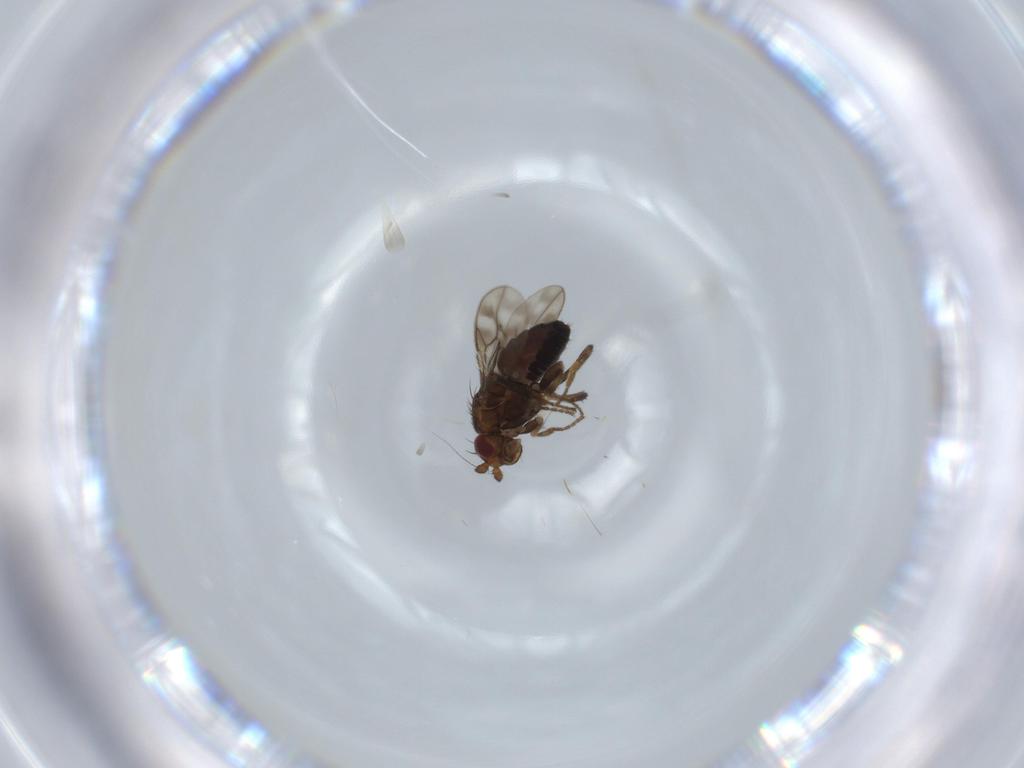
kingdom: Animalia
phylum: Arthropoda
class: Insecta
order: Diptera
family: Sphaeroceridae
